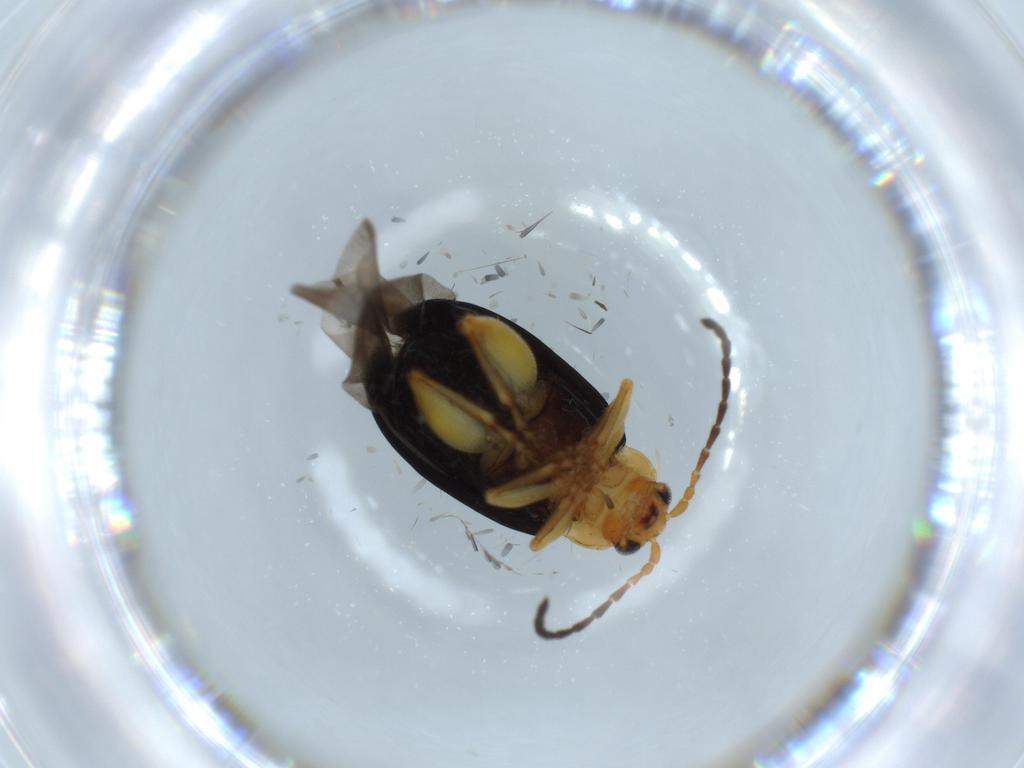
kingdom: Animalia
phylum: Arthropoda
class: Insecta
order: Coleoptera
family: Chrysomelidae
